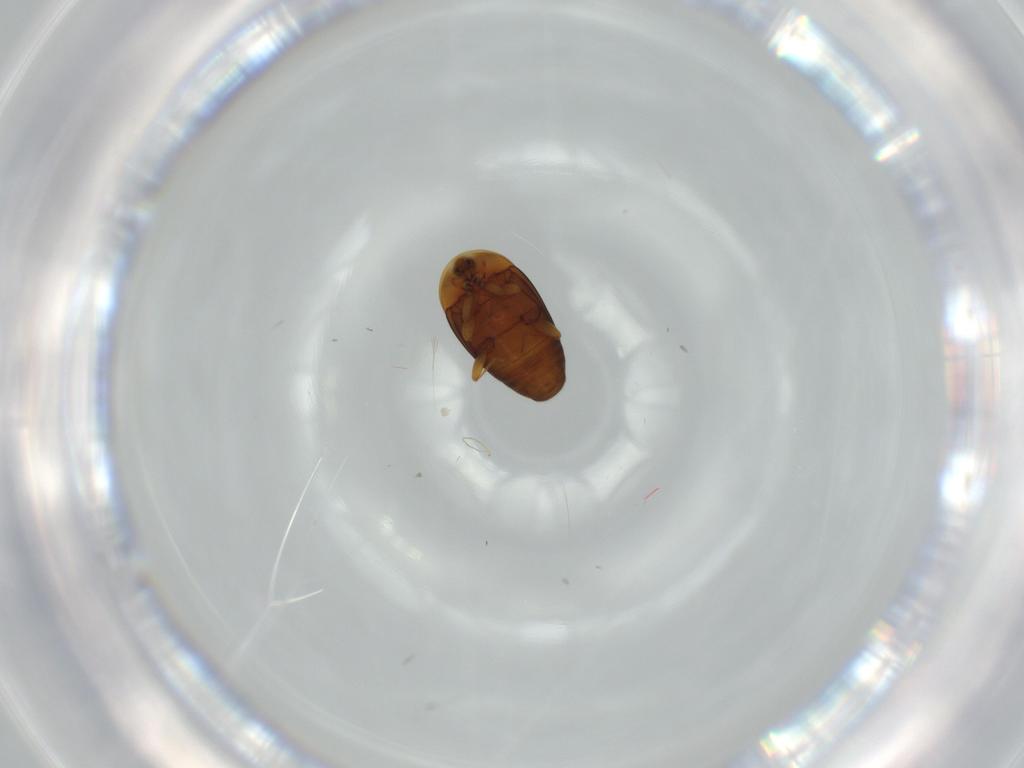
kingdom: Animalia
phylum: Arthropoda
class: Insecta
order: Coleoptera
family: Corylophidae
